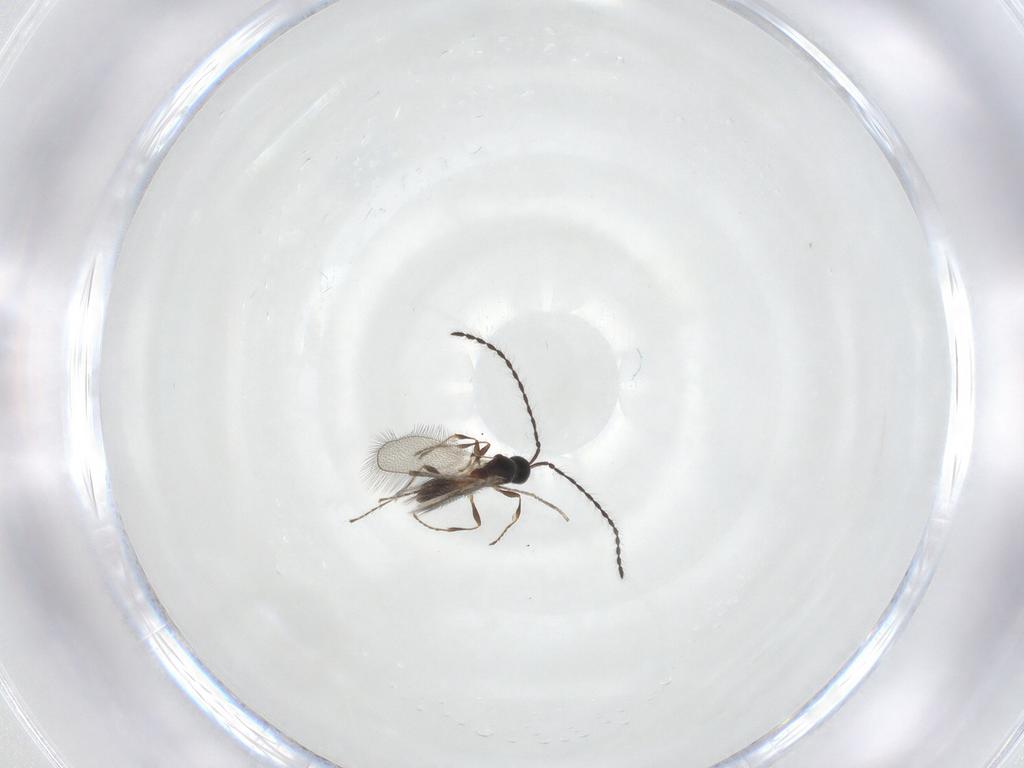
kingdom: Animalia
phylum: Arthropoda
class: Insecta
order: Hymenoptera
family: Diapriidae
